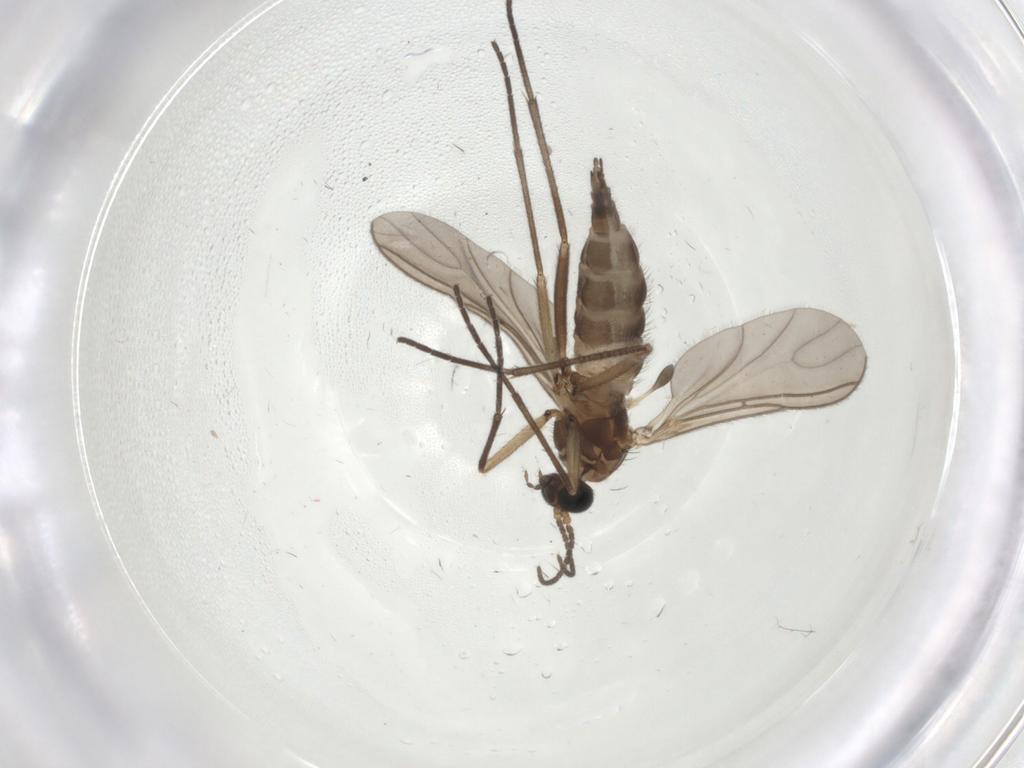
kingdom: Animalia
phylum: Arthropoda
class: Insecta
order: Diptera
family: Sciaridae
